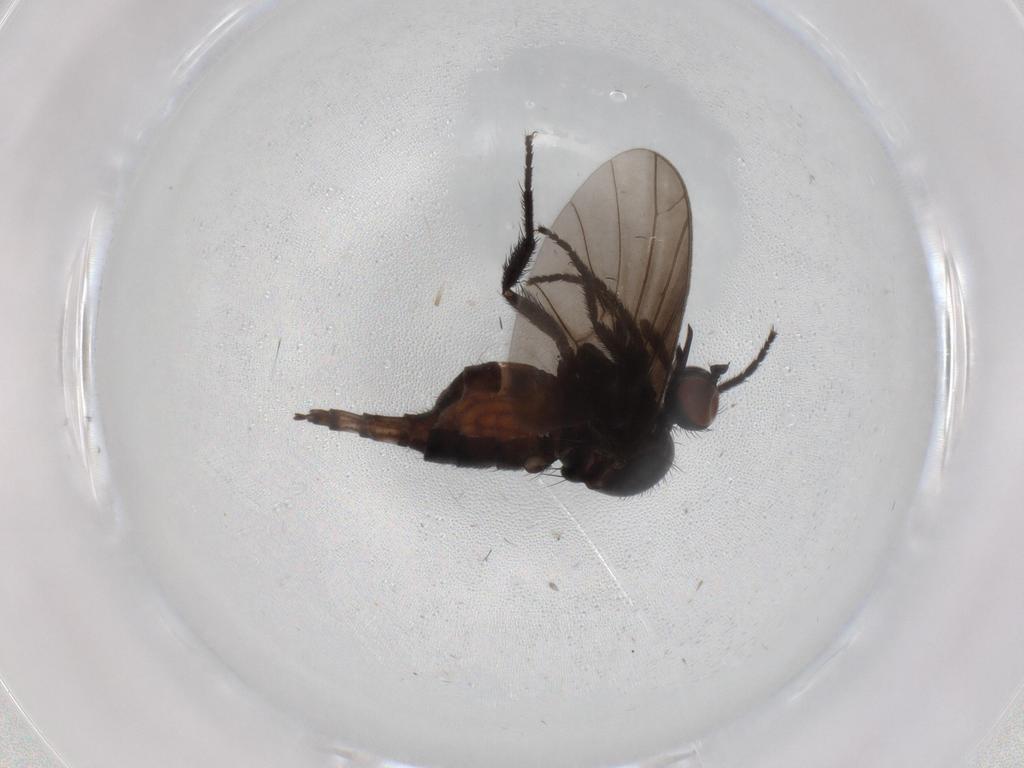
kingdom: Animalia
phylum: Arthropoda
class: Insecta
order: Diptera
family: Empididae
